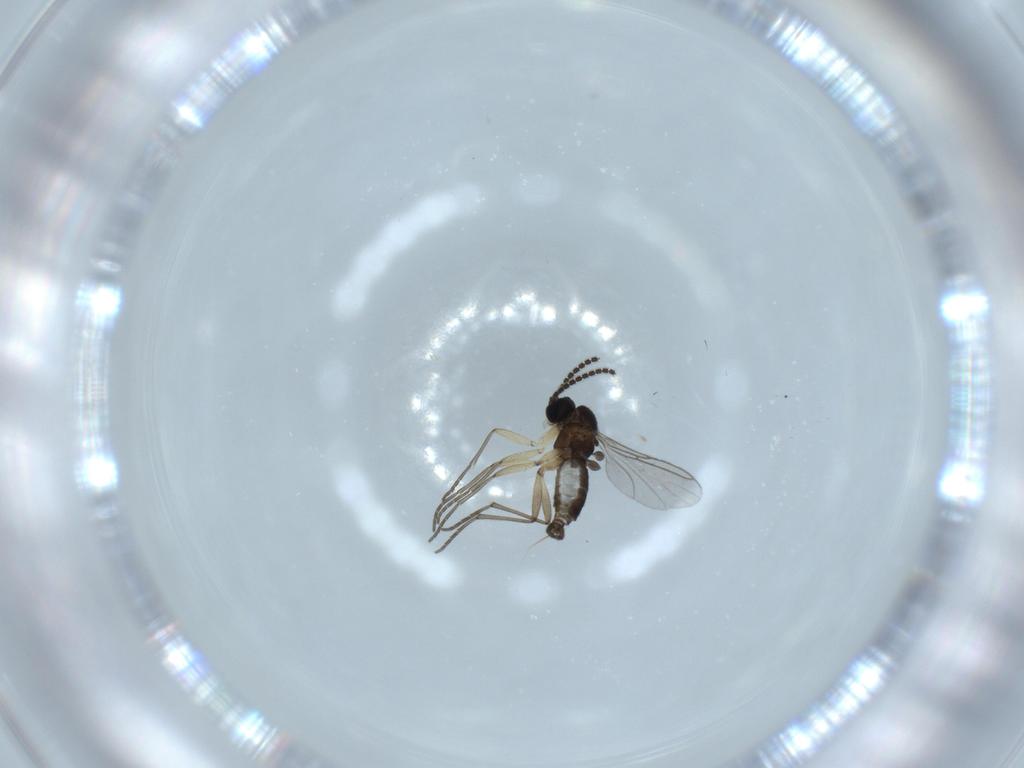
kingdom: Animalia
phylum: Arthropoda
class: Insecta
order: Diptera
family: Sciaridae
